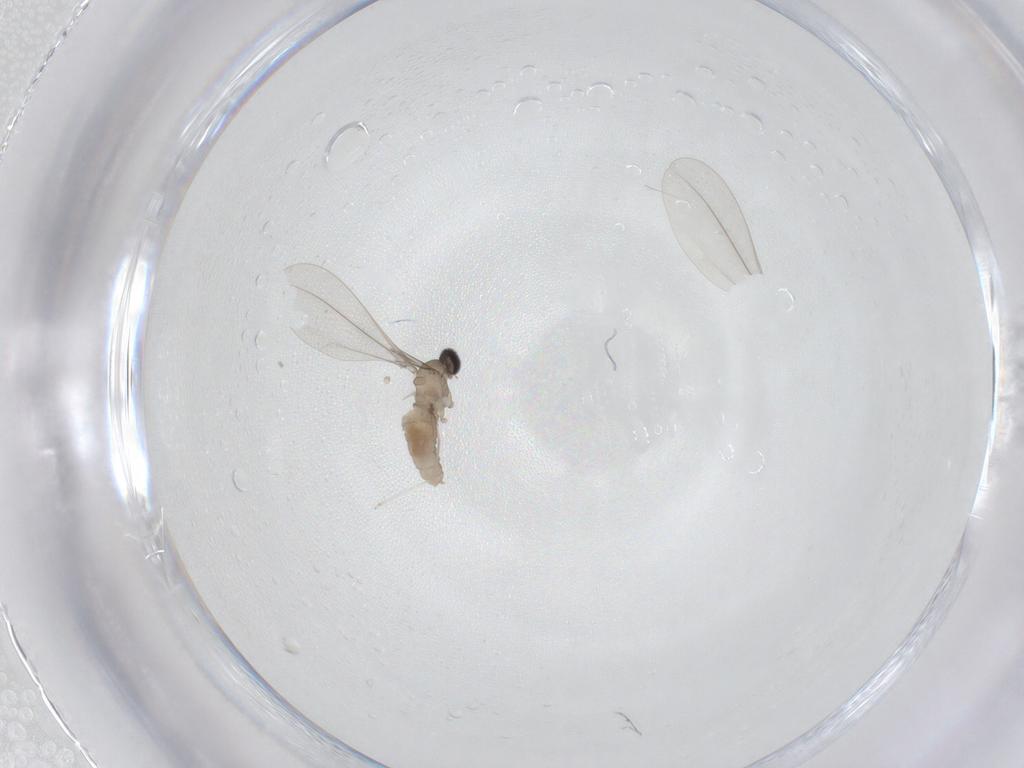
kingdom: Animalia
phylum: Arthropoda
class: Insecta
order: Diptera
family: Cecidomyiidae
